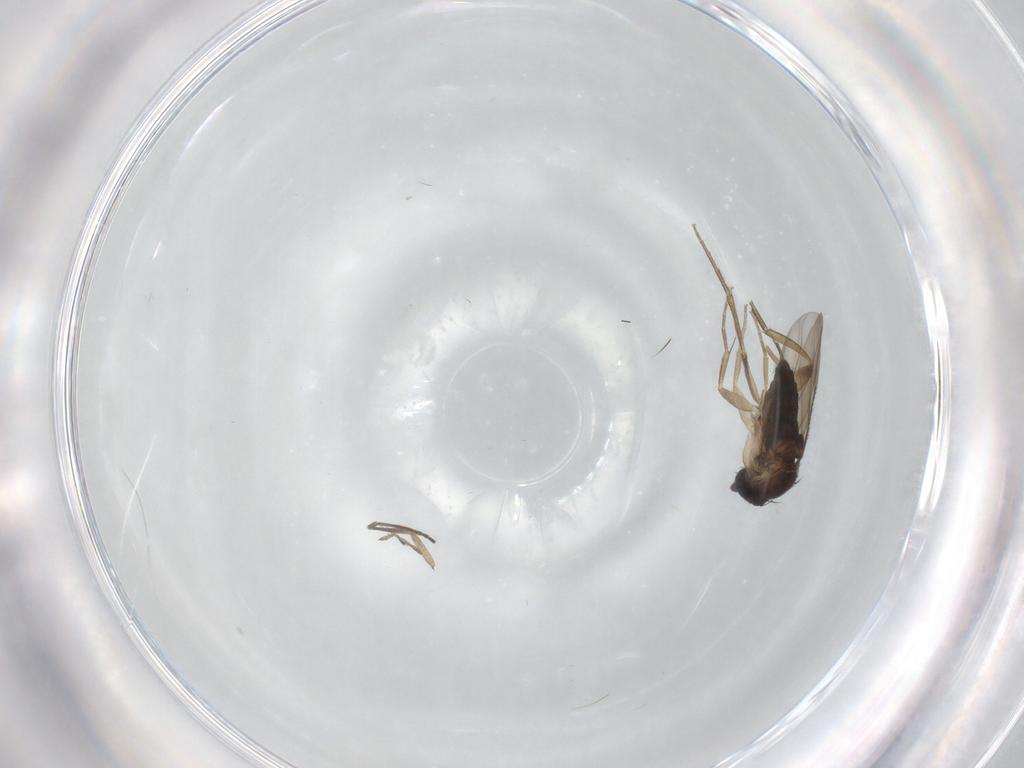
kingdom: Animalia
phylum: Arthropoda
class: Insecta
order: Diptera
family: Phoridae
